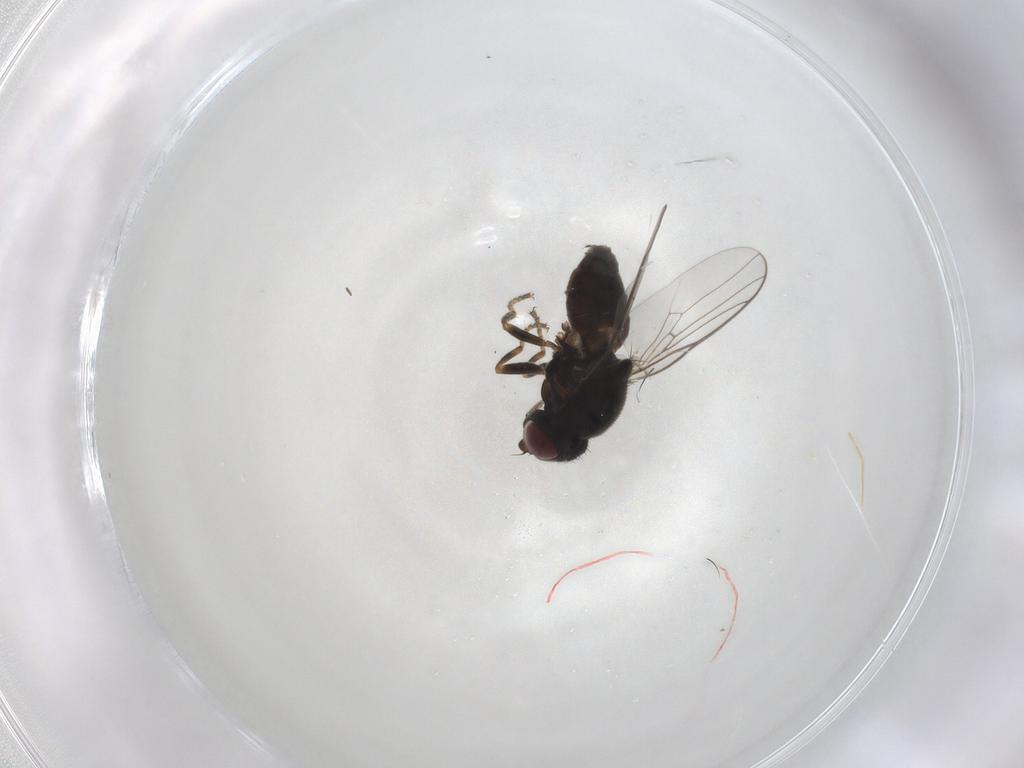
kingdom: Animalia
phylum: Arthropoda
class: Insecta
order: Diptera
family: Chloropidae
